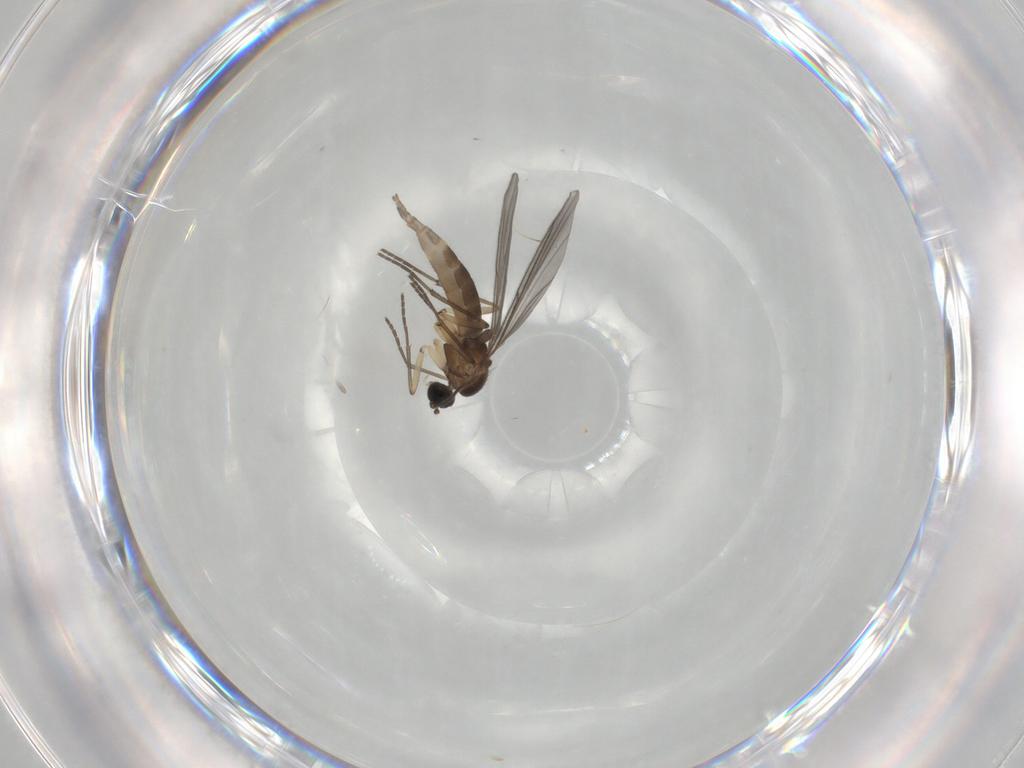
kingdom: Animalia
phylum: Arthropoda
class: Insecta
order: Diptera
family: Sciaridae
